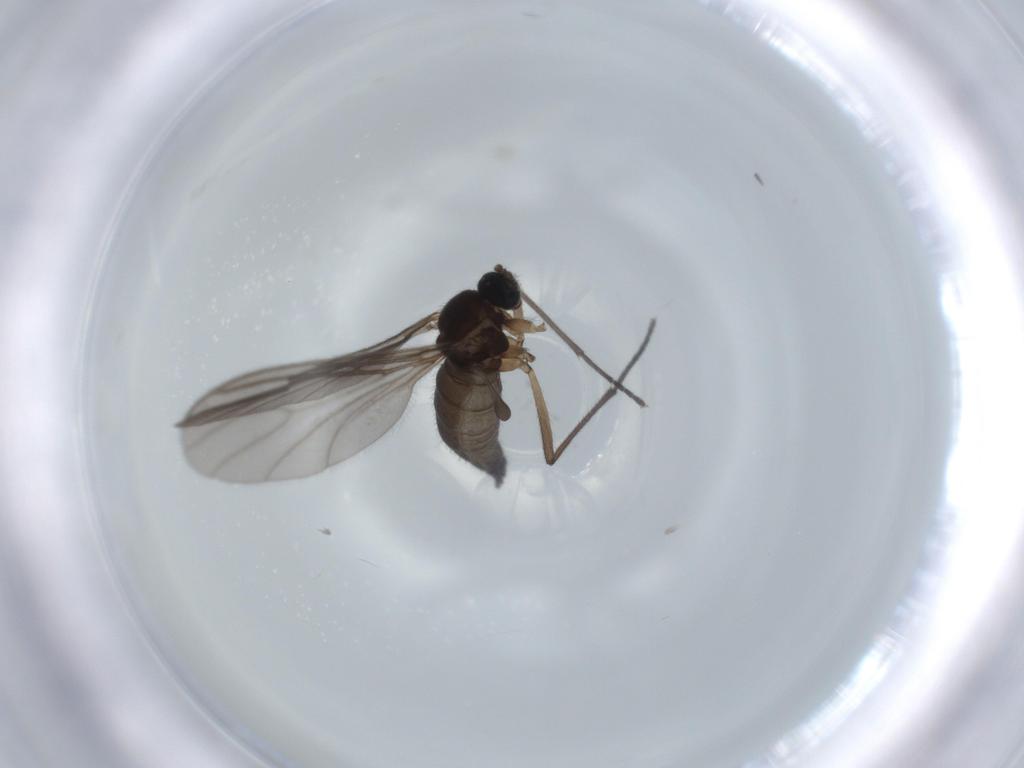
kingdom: Animalia
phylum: Arthropoda
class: Insecta
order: Diptera
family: Sciaridae
